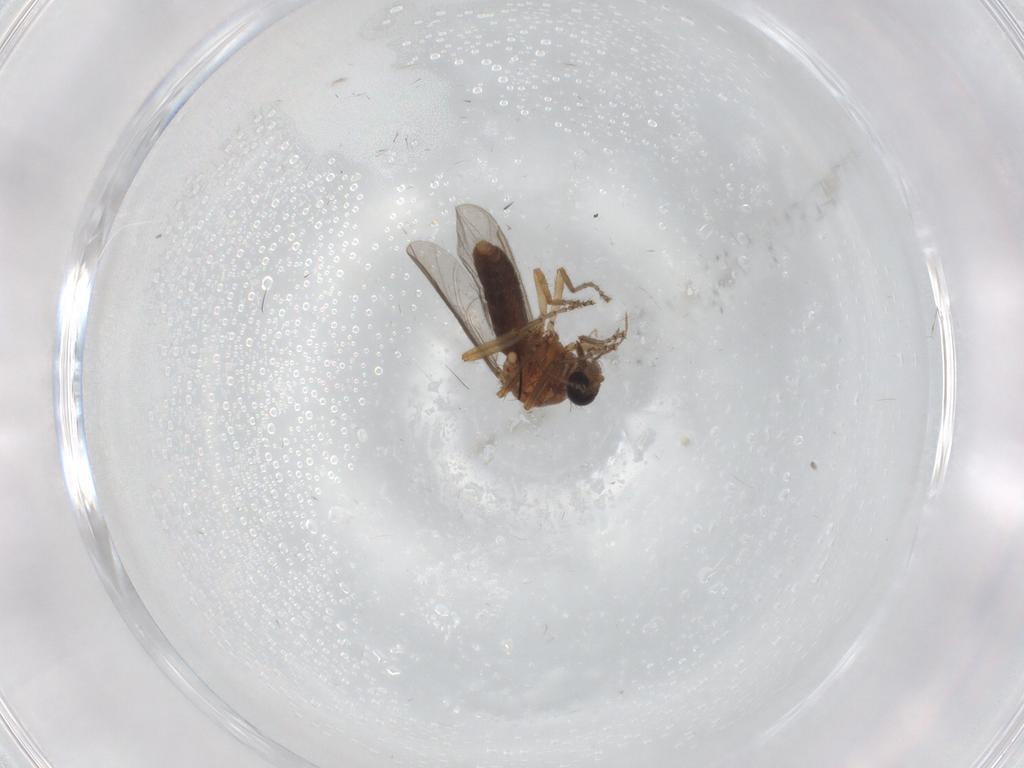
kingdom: Animalia
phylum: Arthropoda
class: Insecta
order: Diptera
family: Ceratopogonidae
